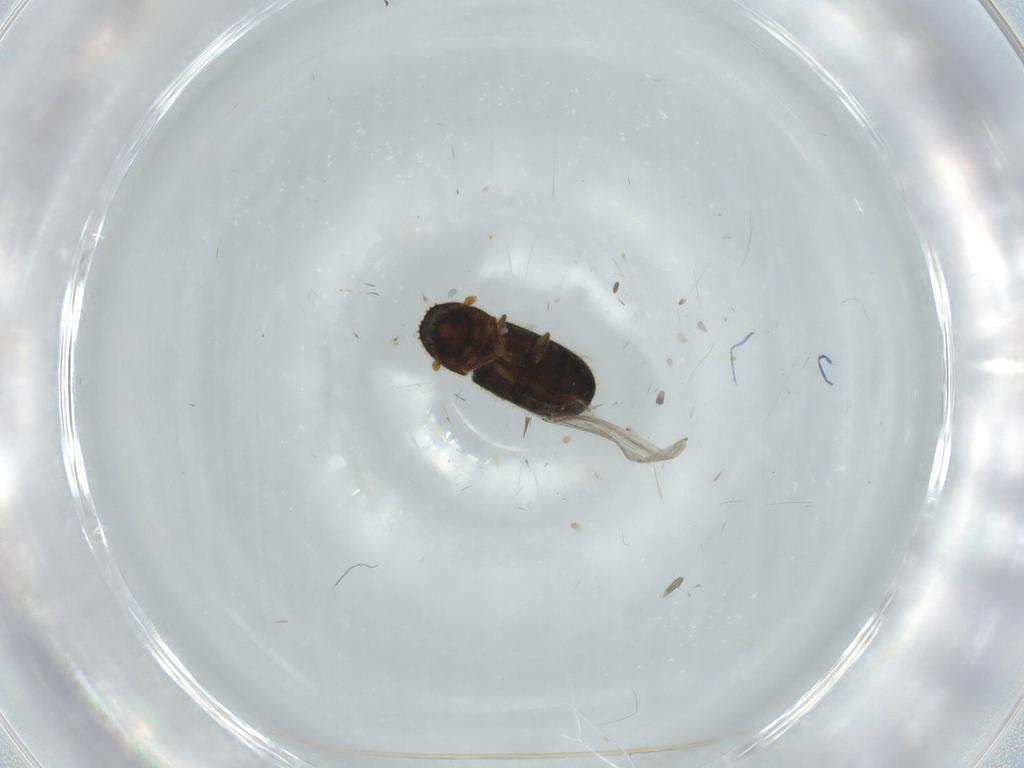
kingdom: Animalia
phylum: Arthropoda
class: Insecta
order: Coleoptera
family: Curculionidae
